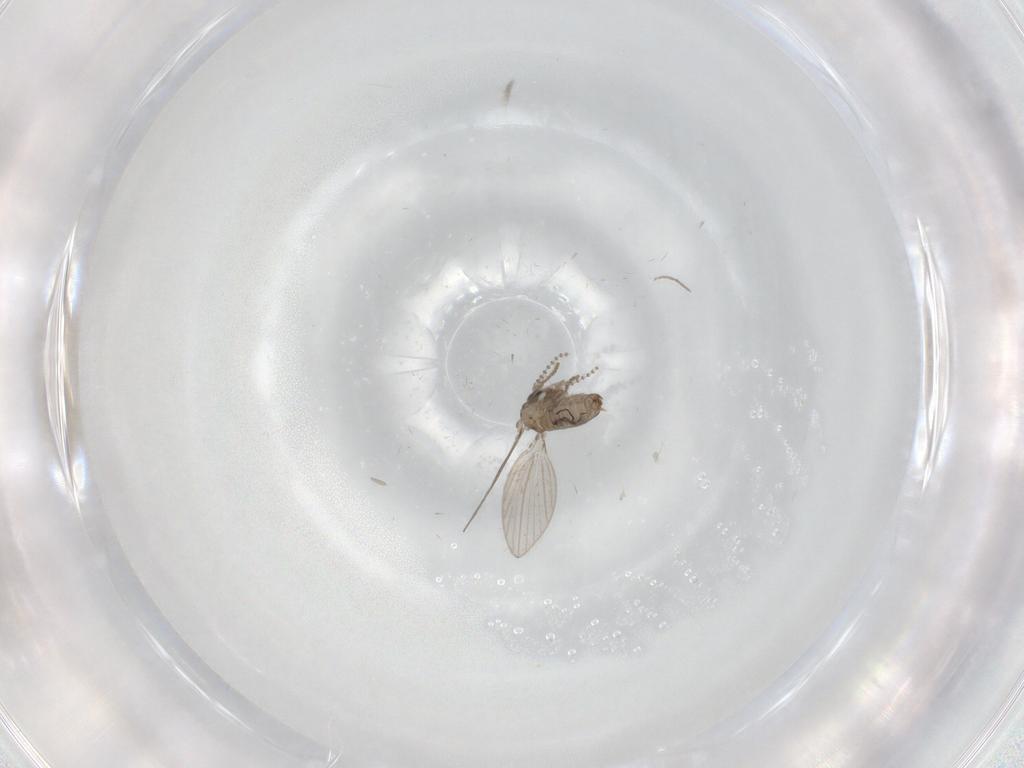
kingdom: Animalia
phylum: Arthropoda
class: Insecta
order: Diptera
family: Psychodidae
